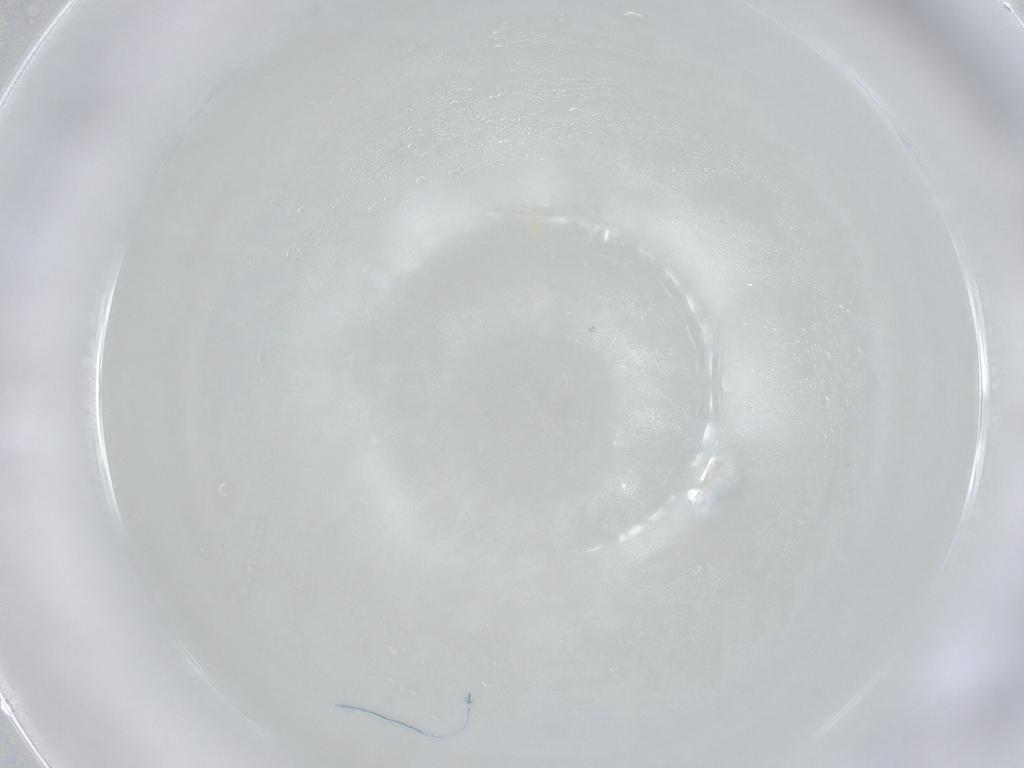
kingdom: Animalia
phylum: Arthropoda
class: Arachnida
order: Trombidiformes
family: Tetranychidae
